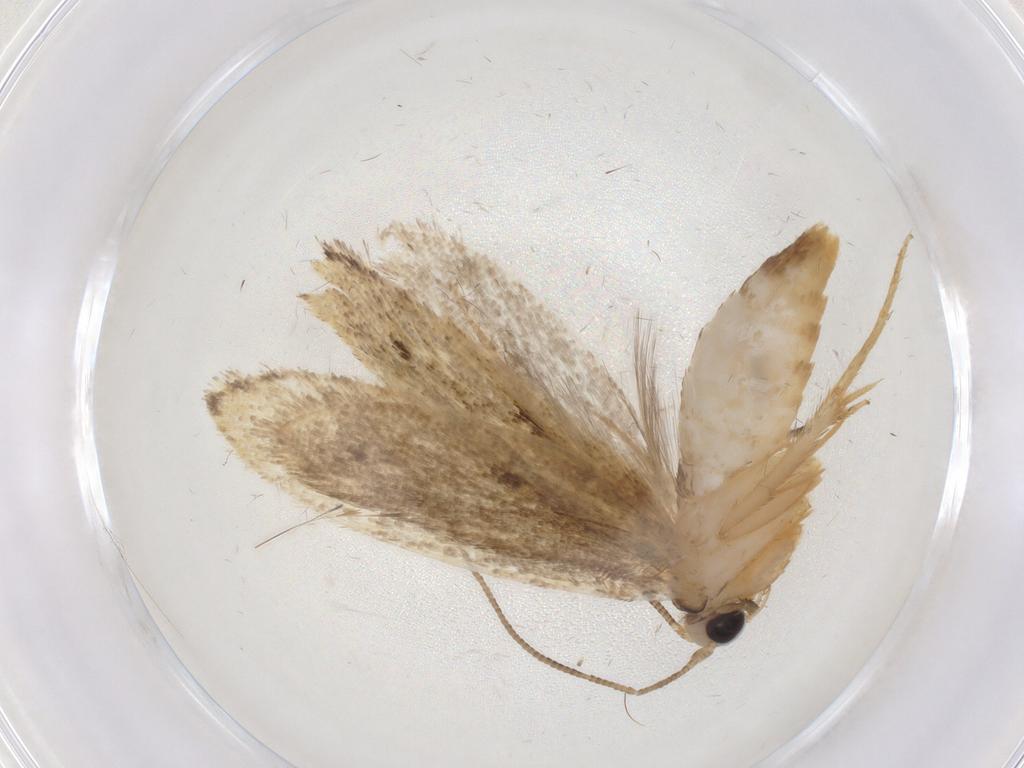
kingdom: Animalia
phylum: Arthropoda
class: Insecta
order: Lepidoptera
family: Tineidae
